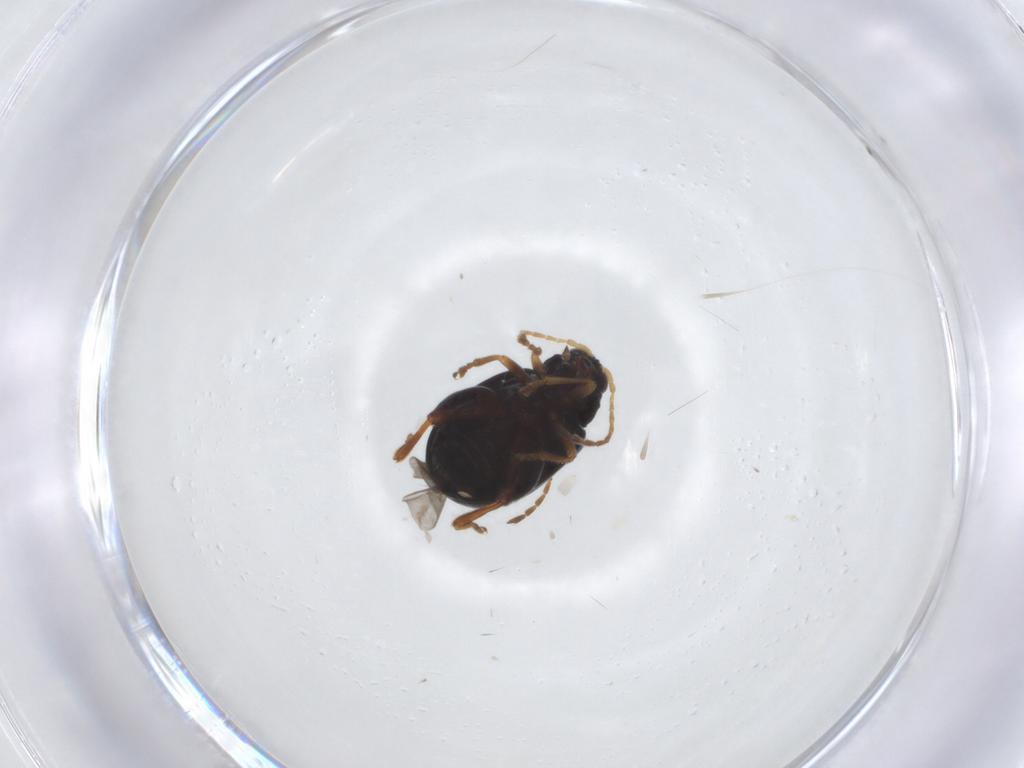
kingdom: Animalia
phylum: Arthropoda
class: Insecta
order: Coleoptera
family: Chrysomelidae
